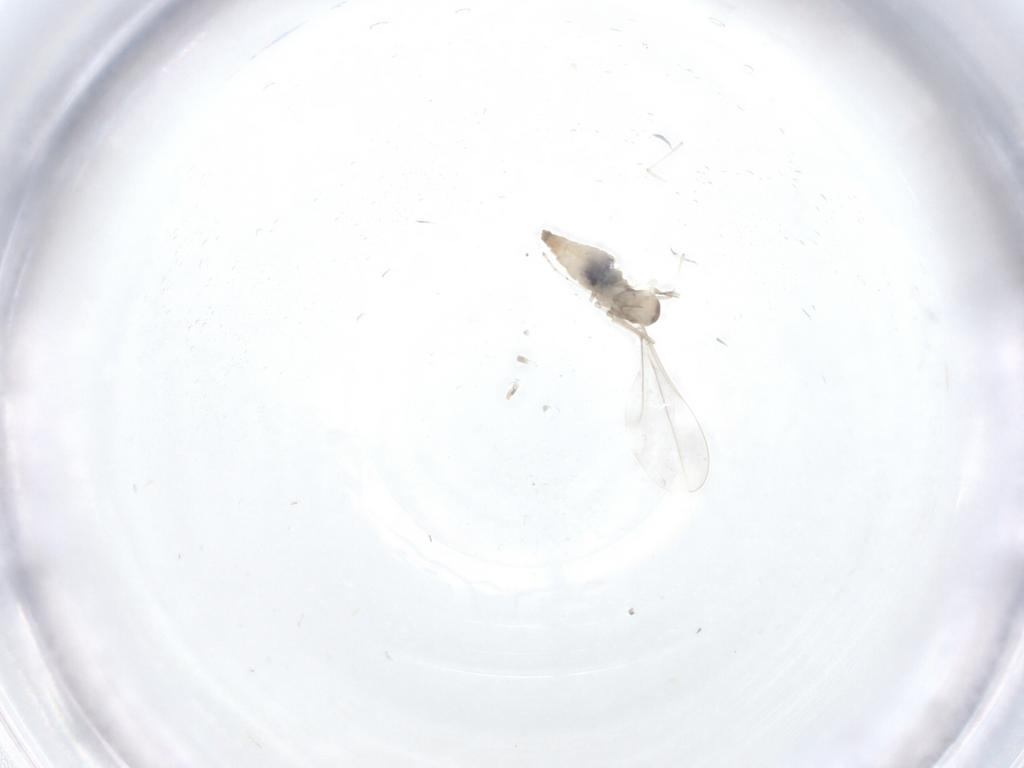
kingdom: Animalia
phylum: Arthropoda
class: Insecta
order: Diptera
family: Cecidomyiidae
